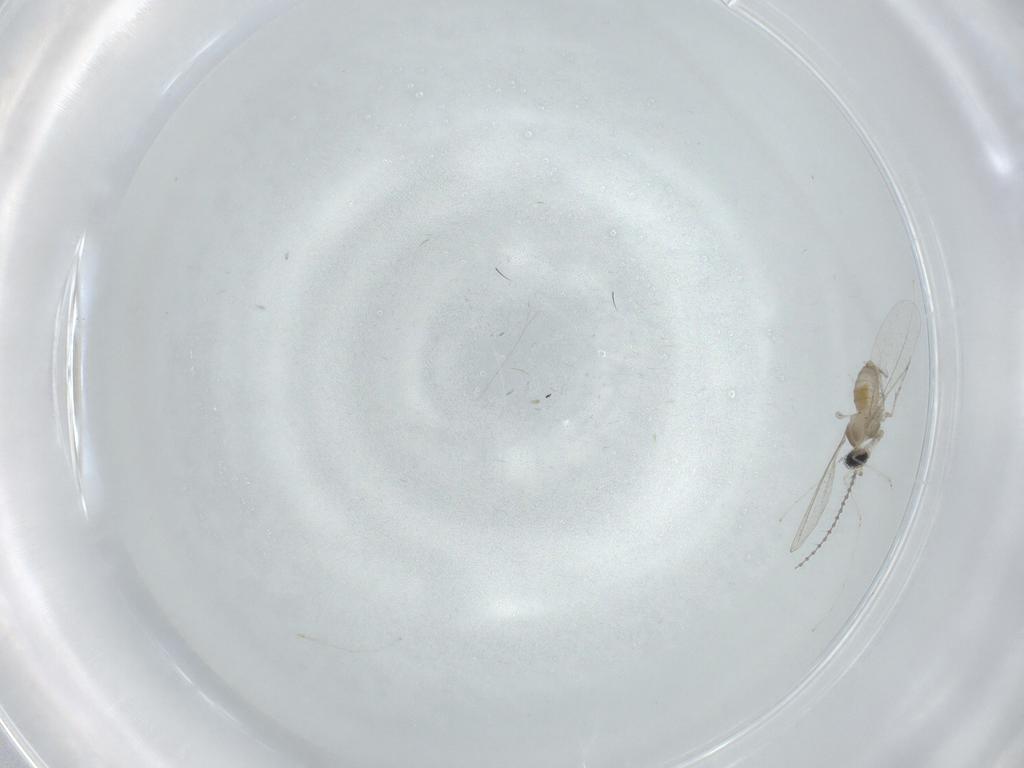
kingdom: Animalia
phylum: Arthropoda
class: Insecta
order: Diptera
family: Cecidomyiidae
